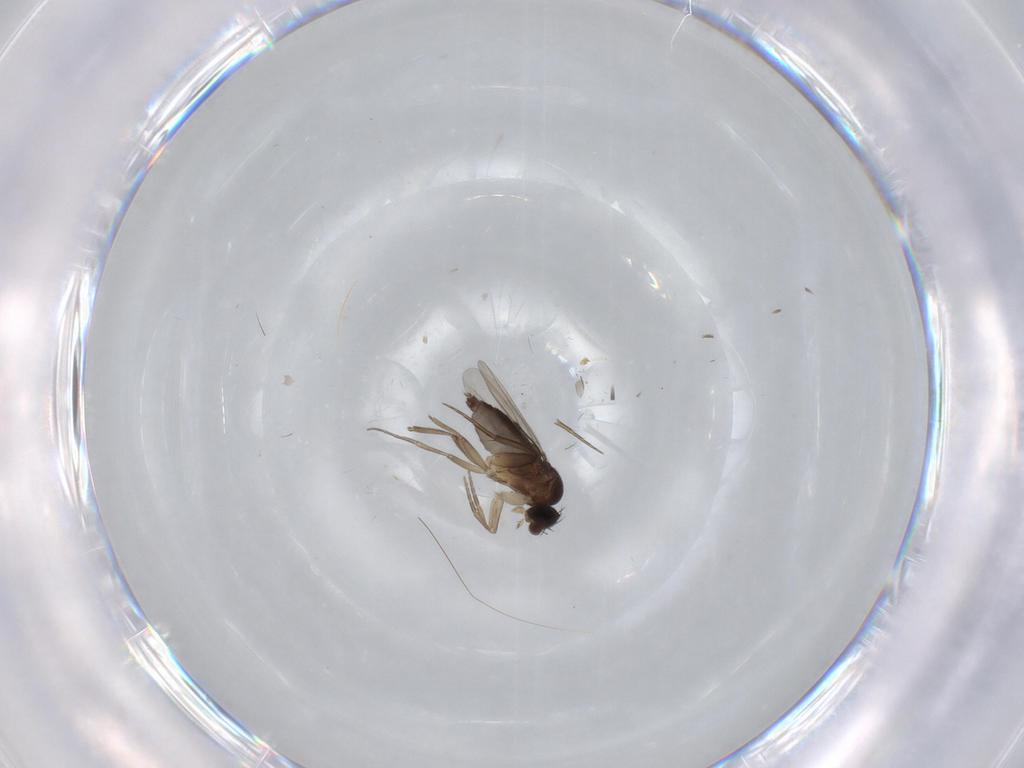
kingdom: Animalia
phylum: Arthropoda
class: Insecta
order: Diptera
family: Phoridae
